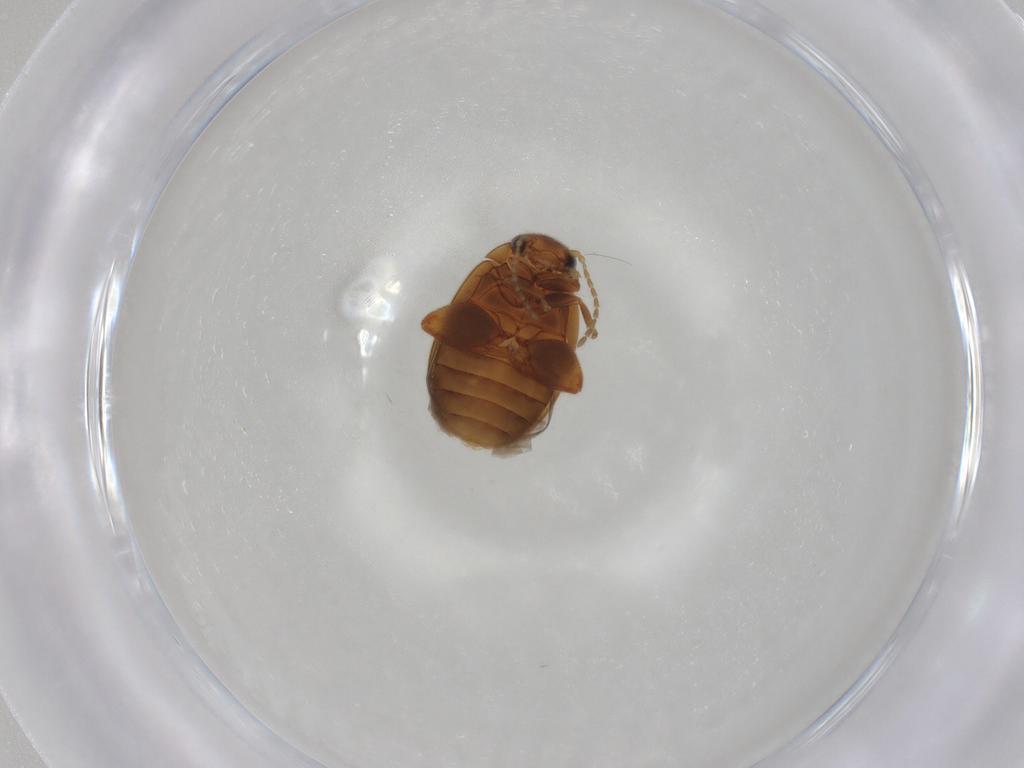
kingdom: Animalia
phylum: Arthropoda
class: Insecta
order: Coleoptera
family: Scirtidae
